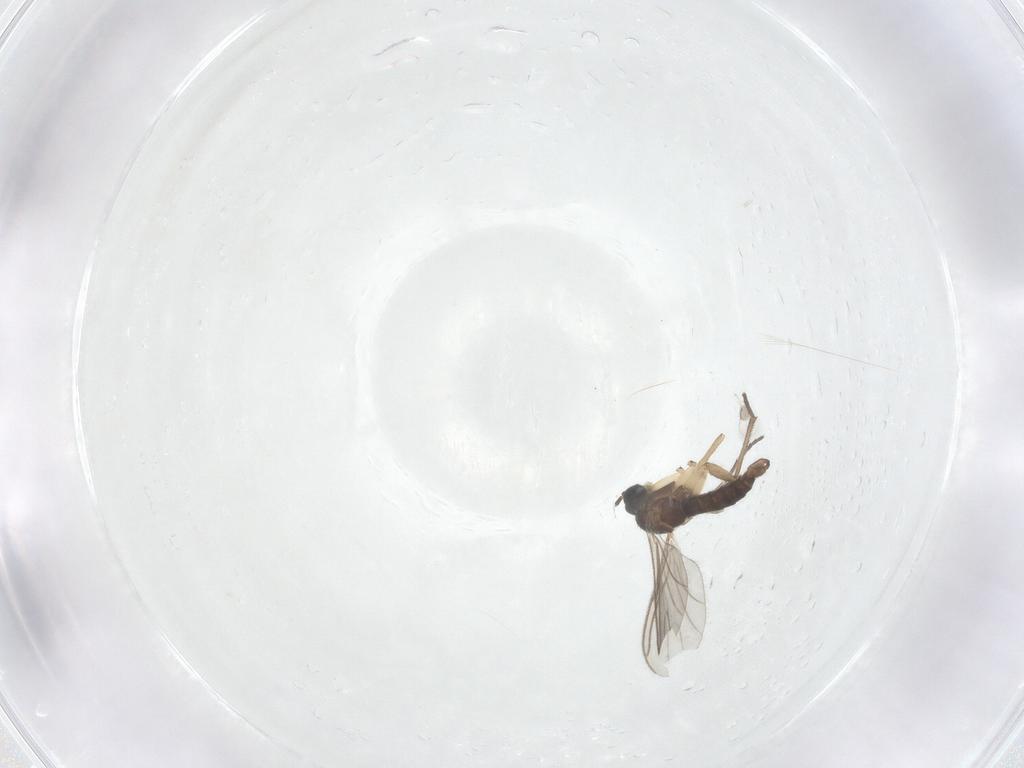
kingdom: Animalia
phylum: Arthropoda
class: Insecta
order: Diptera
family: Sciaridae
